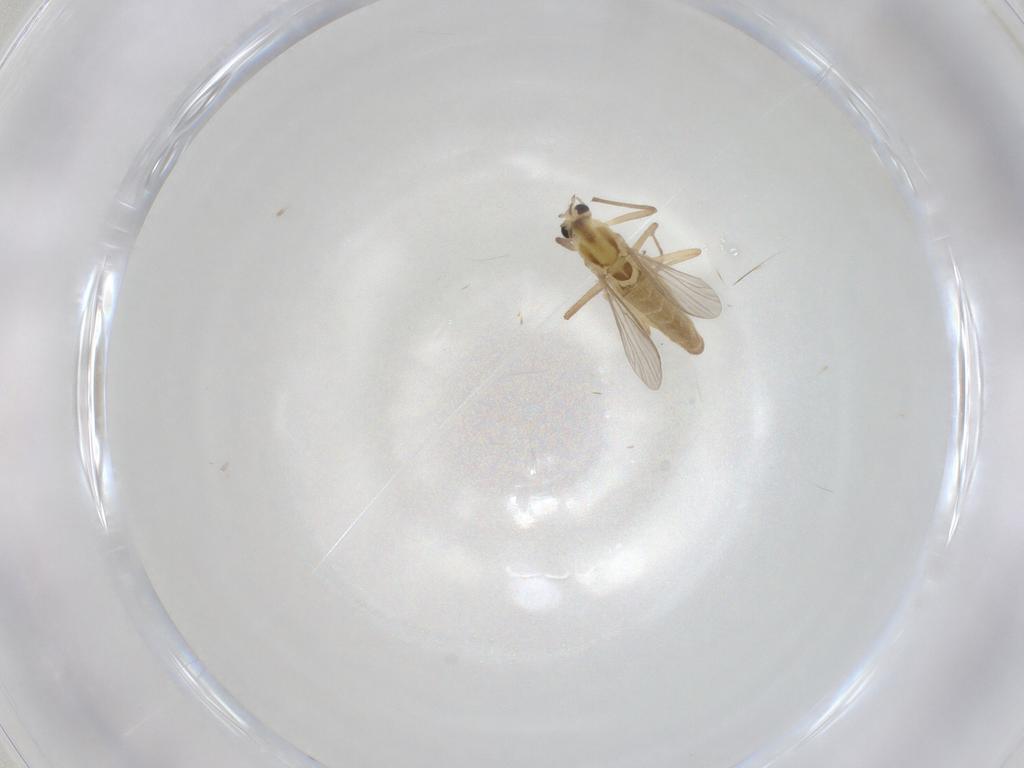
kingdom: Animalia
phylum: Arthropoda
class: Insecta
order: Diptera
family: Chironomidae
